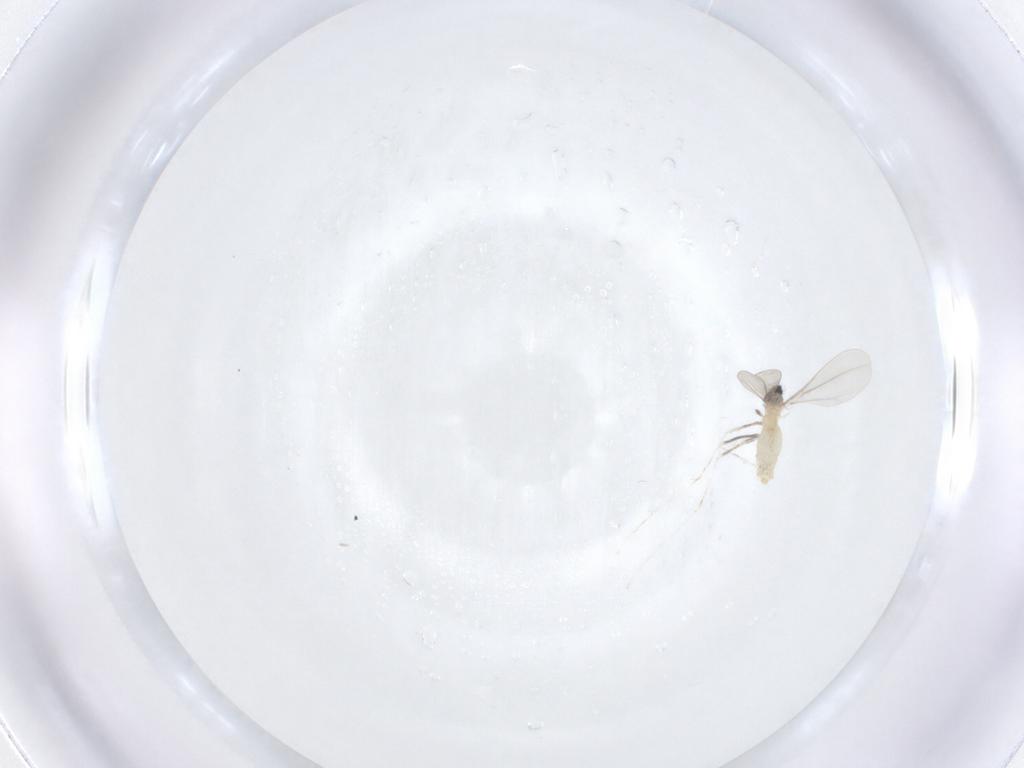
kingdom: Animalia
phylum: Arthropoda
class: Insecta
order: Diptera
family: Cecidomyiidae
